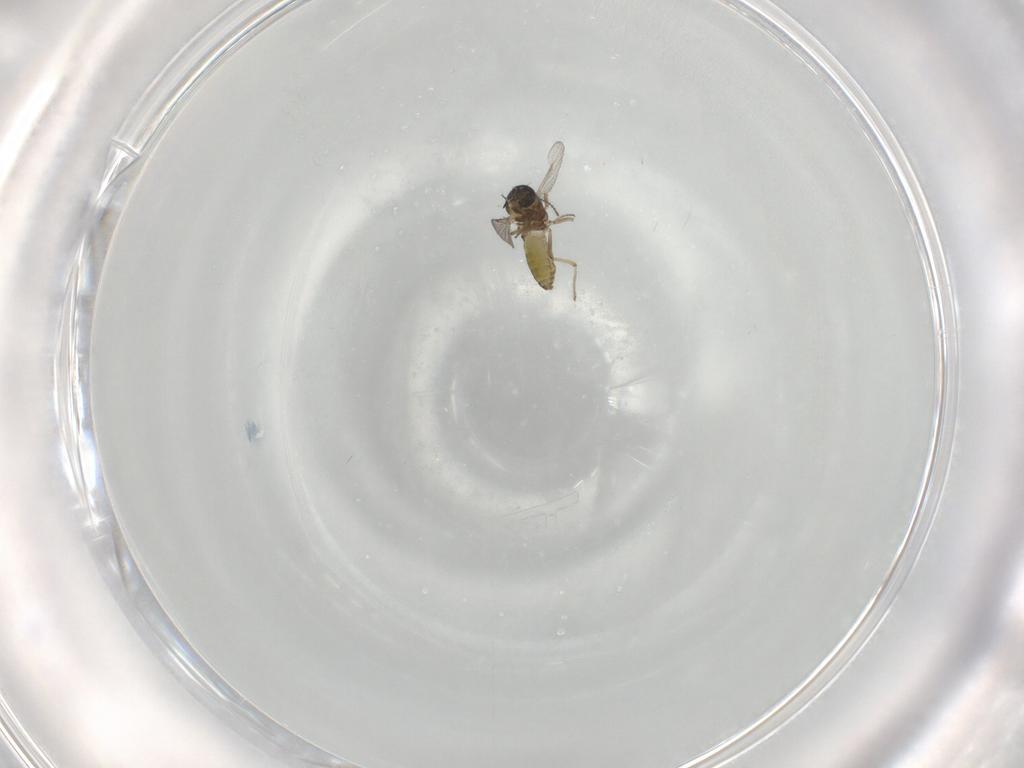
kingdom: Animalia
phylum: Arthropoda
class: Insecta
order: Diptera
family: Ceratopogonidae
